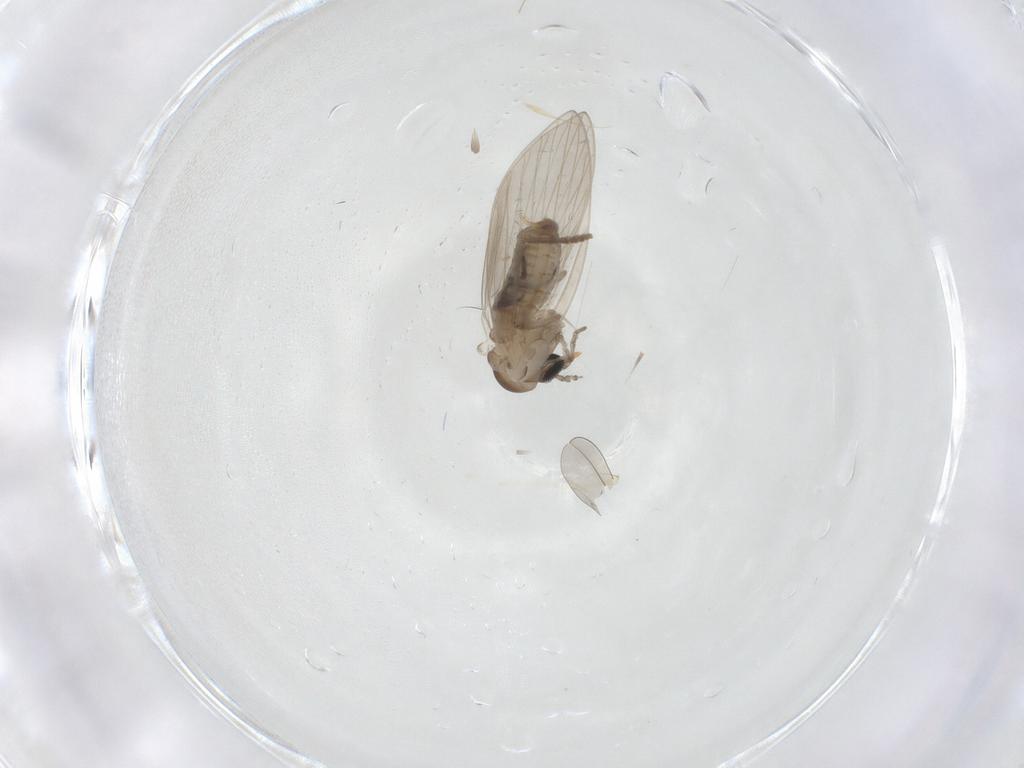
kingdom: Animalia
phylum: Arthropoda
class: Insecta
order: Diptera
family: Psychodidae
